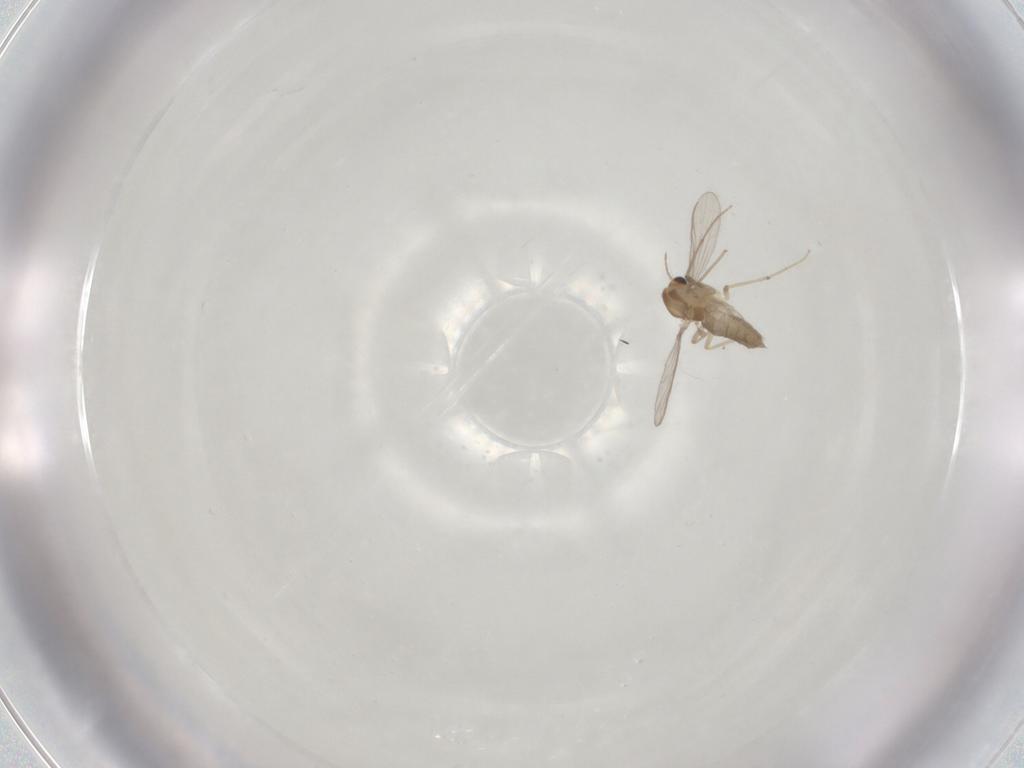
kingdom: Animalia
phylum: Arthropoda
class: Insecta
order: Diptera
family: Chironomidae
